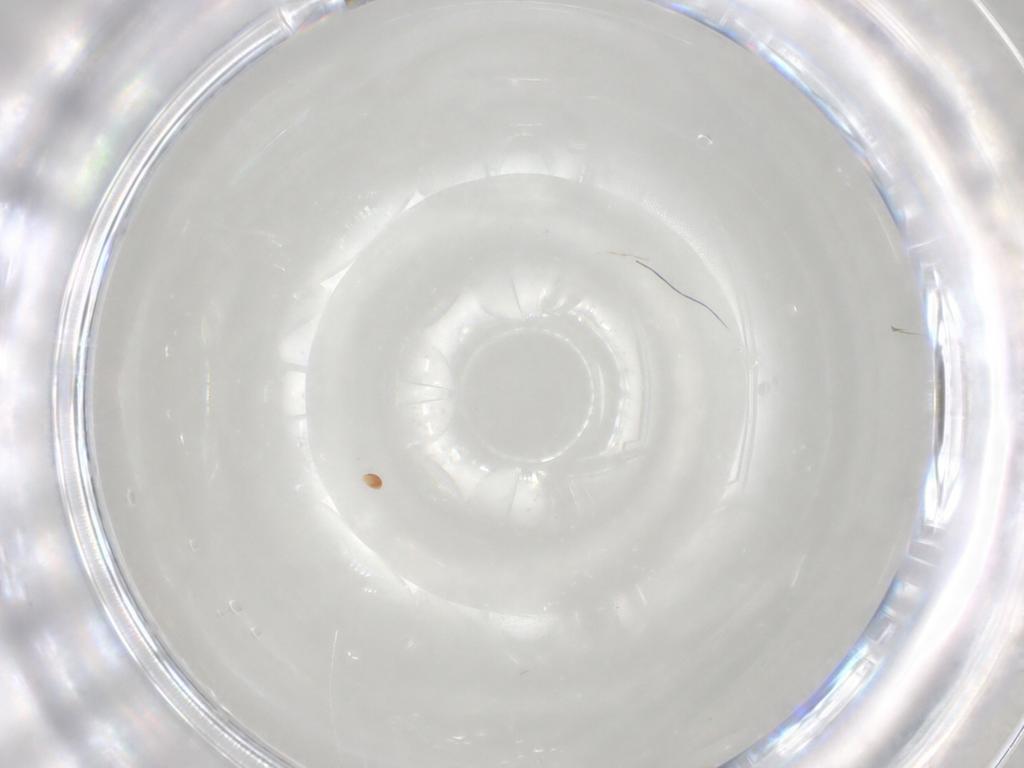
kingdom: Animalia
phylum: Arthropoda
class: Arachnida
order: Trombidiformes
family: Scutacaridae
